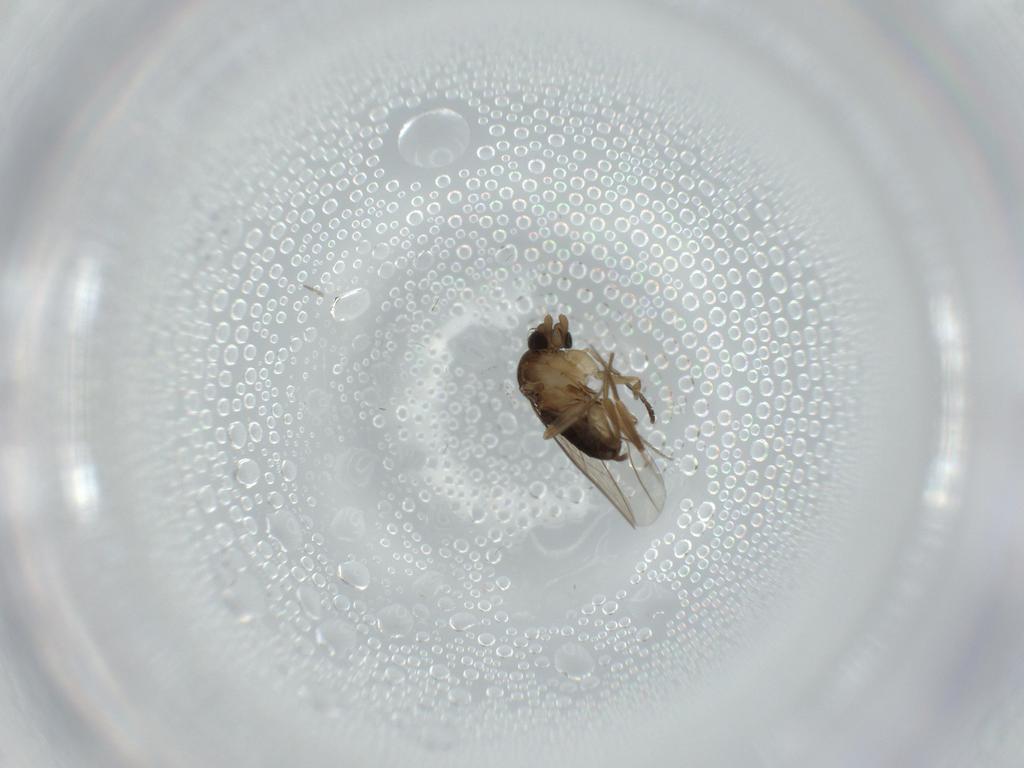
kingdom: Animalia
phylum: Arthropoda
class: Insecta
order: Diptera
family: Phoridae
